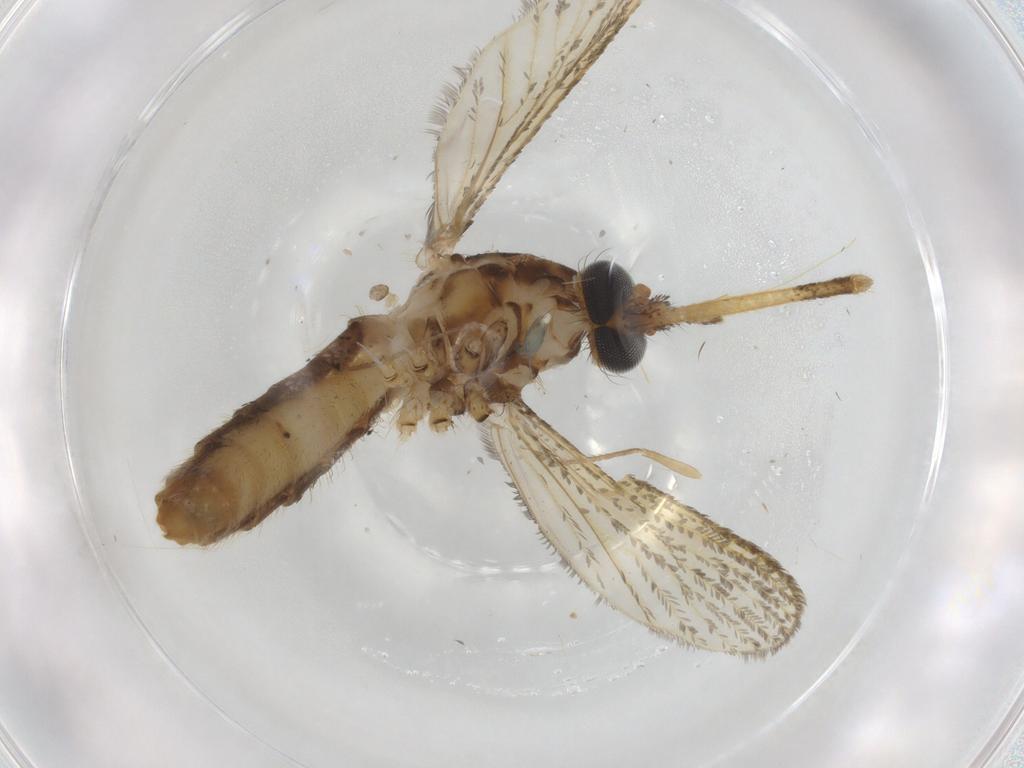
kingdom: Animalia
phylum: Arthropoda
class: Insecta
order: Diptera
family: Culicidae
